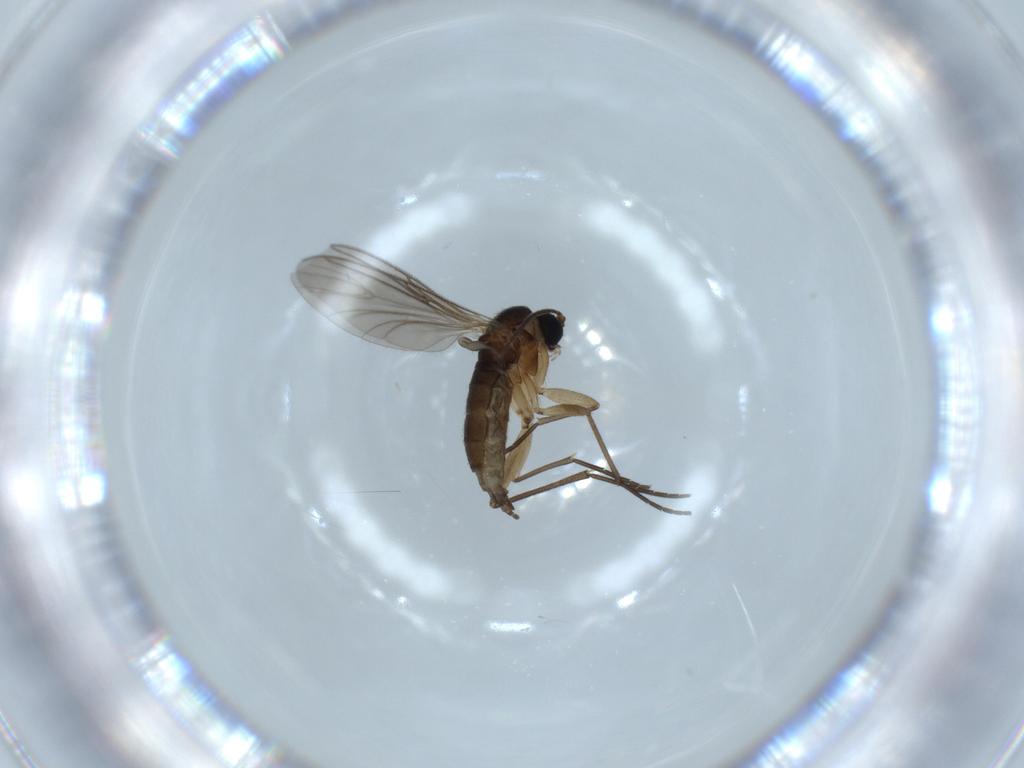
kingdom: Animalia
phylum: Arthropoda
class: Insecta
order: Diptera
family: Sciaridae
